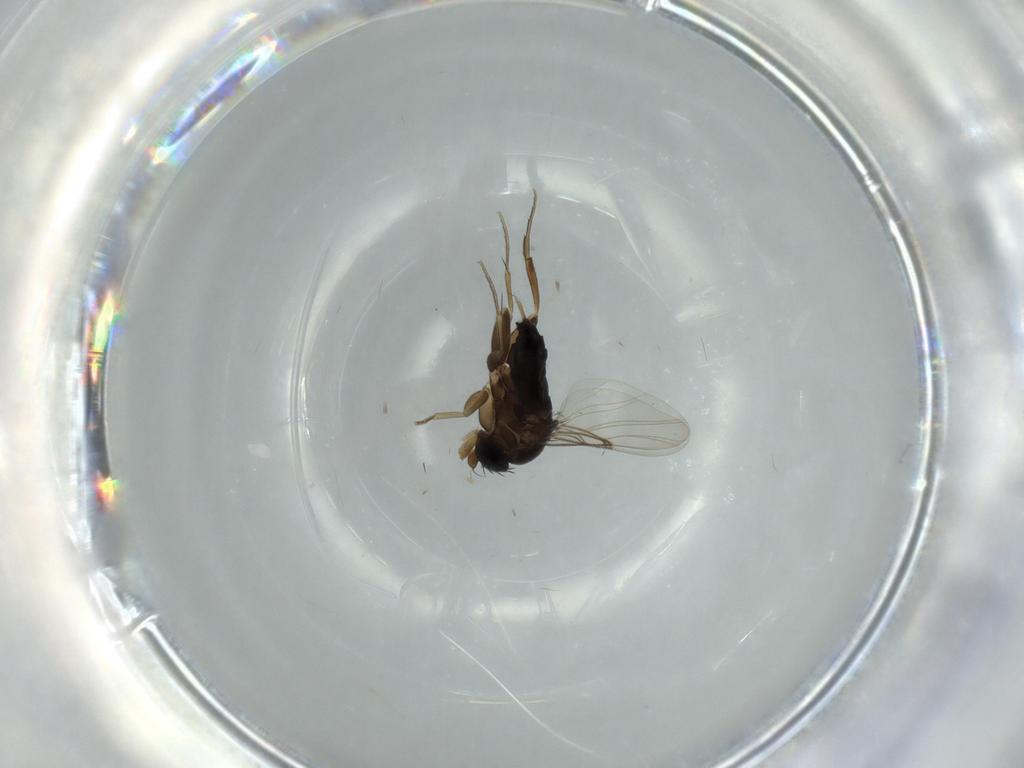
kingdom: Animalia
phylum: Arthropoda
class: Insecta
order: Diptera
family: Phoridae
